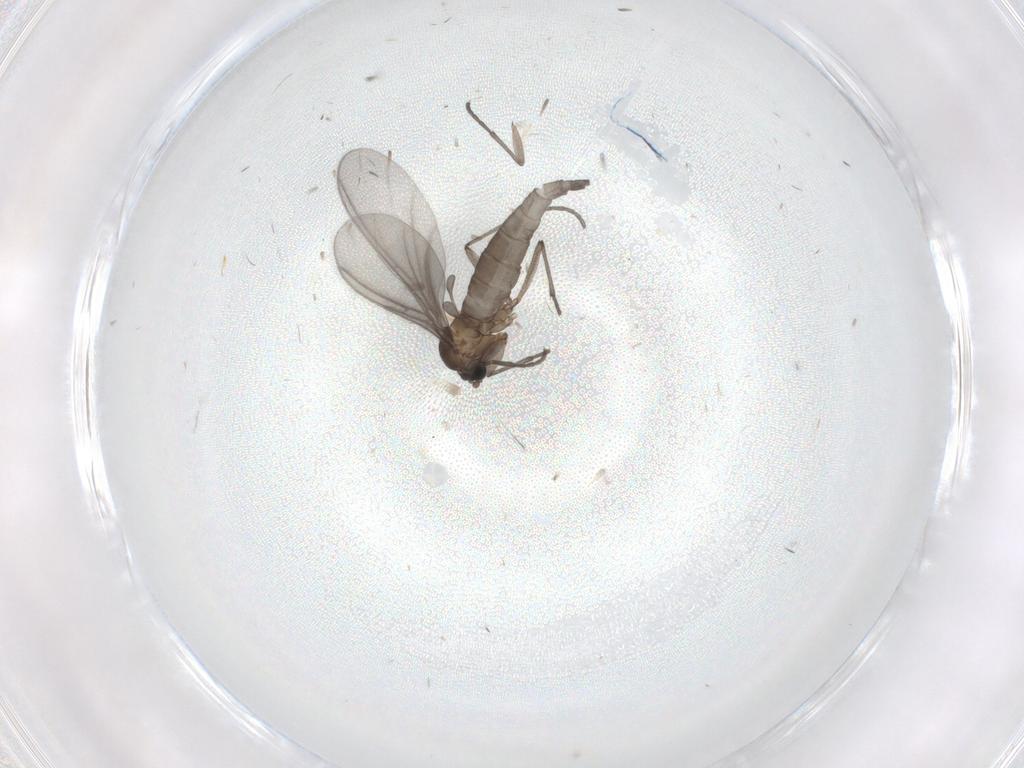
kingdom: Animalia
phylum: Arthropoda
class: Insecta
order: Diptera
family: Sciaridae
